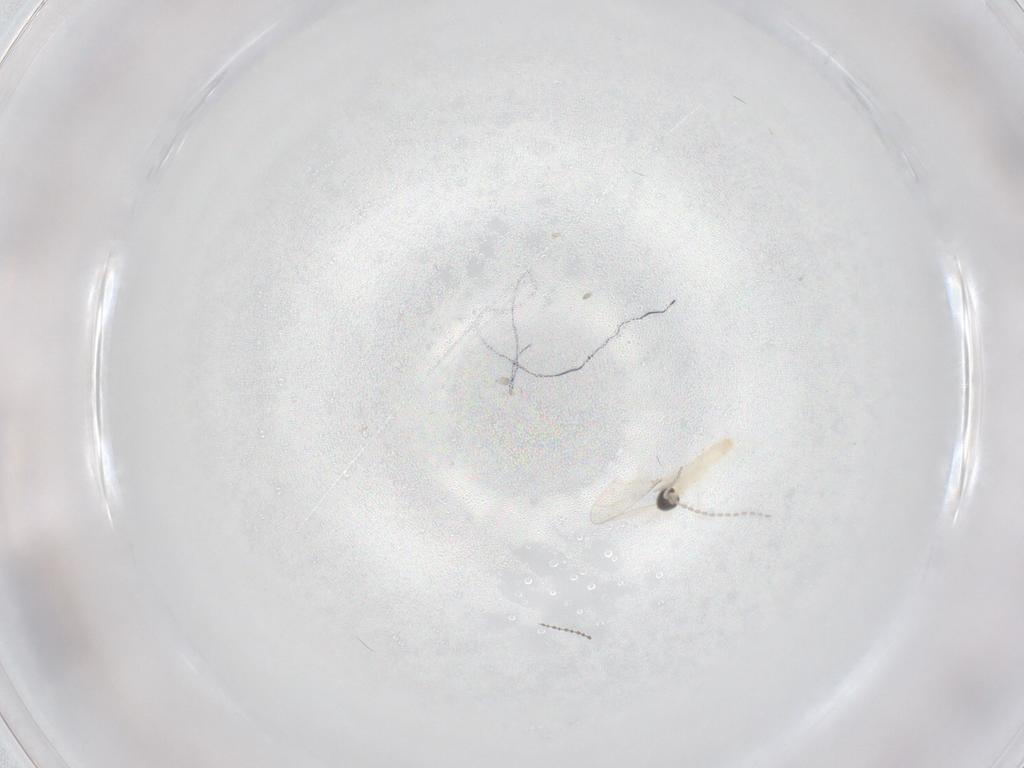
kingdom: Animalia
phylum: Arthropoda
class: Insecta
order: Diptera
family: Cecidomyiidae
